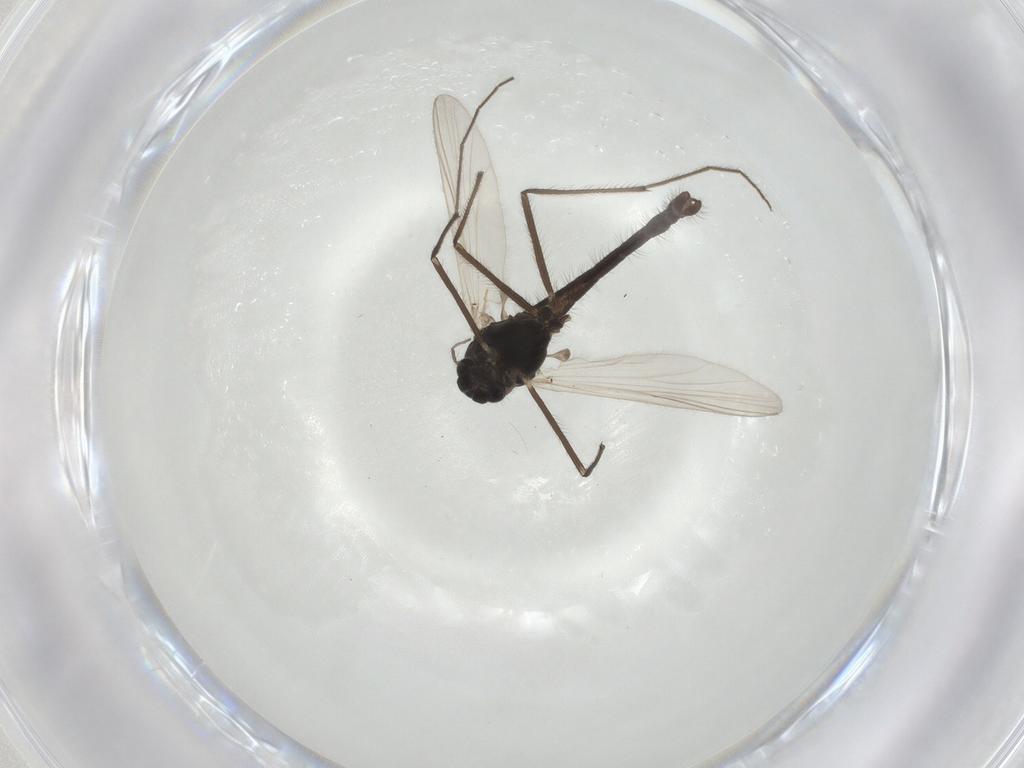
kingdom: Animalia
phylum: Arthropoda
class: Insecta
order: Diptera
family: Chironomidae
